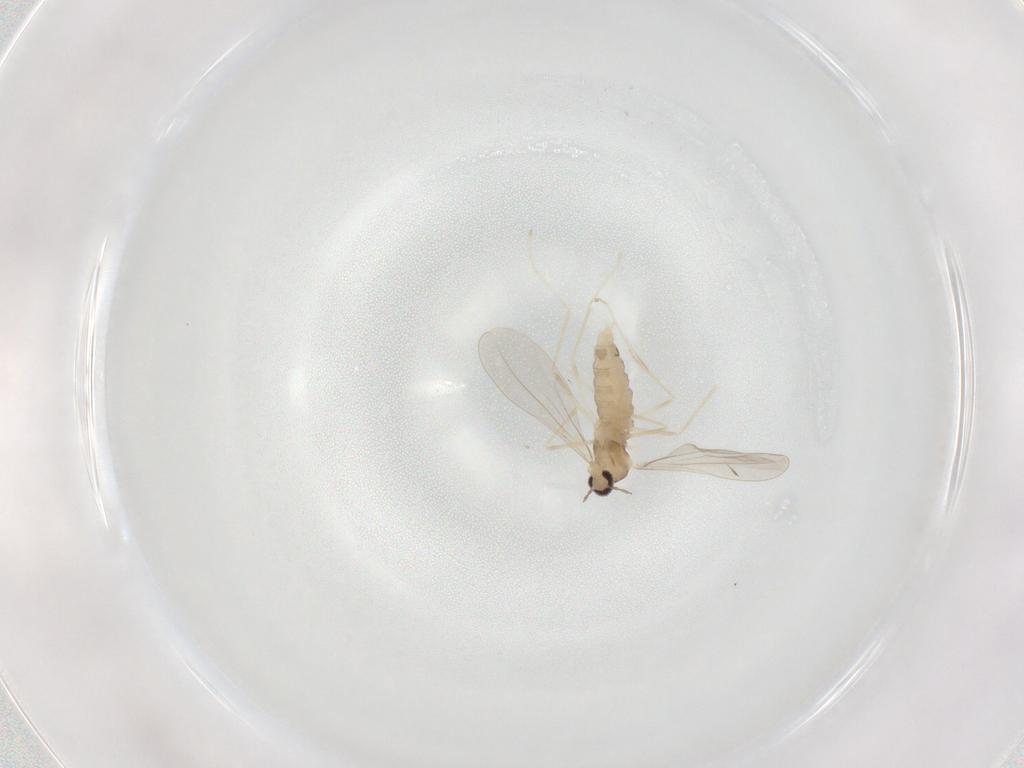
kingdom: Animalia
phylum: Arthropoda
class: Insecta
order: Diptera
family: Cecidomyiidae
